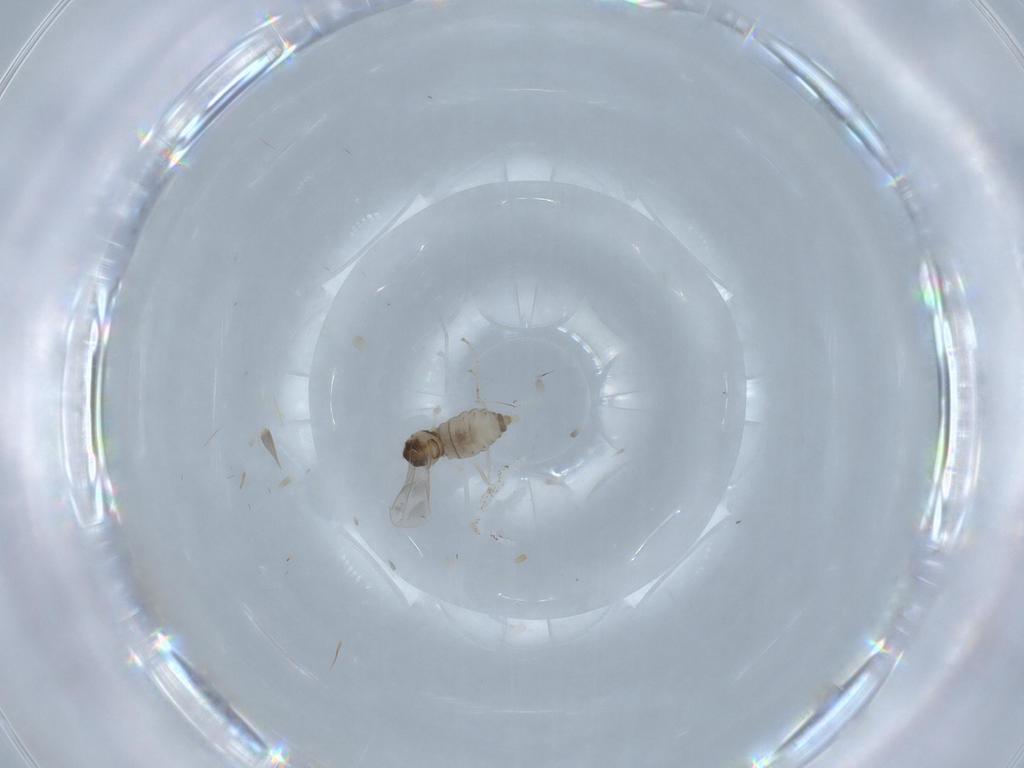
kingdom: Animalia
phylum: Arthropoda
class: Insecta
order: Diptera
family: Cecidomyiidae
